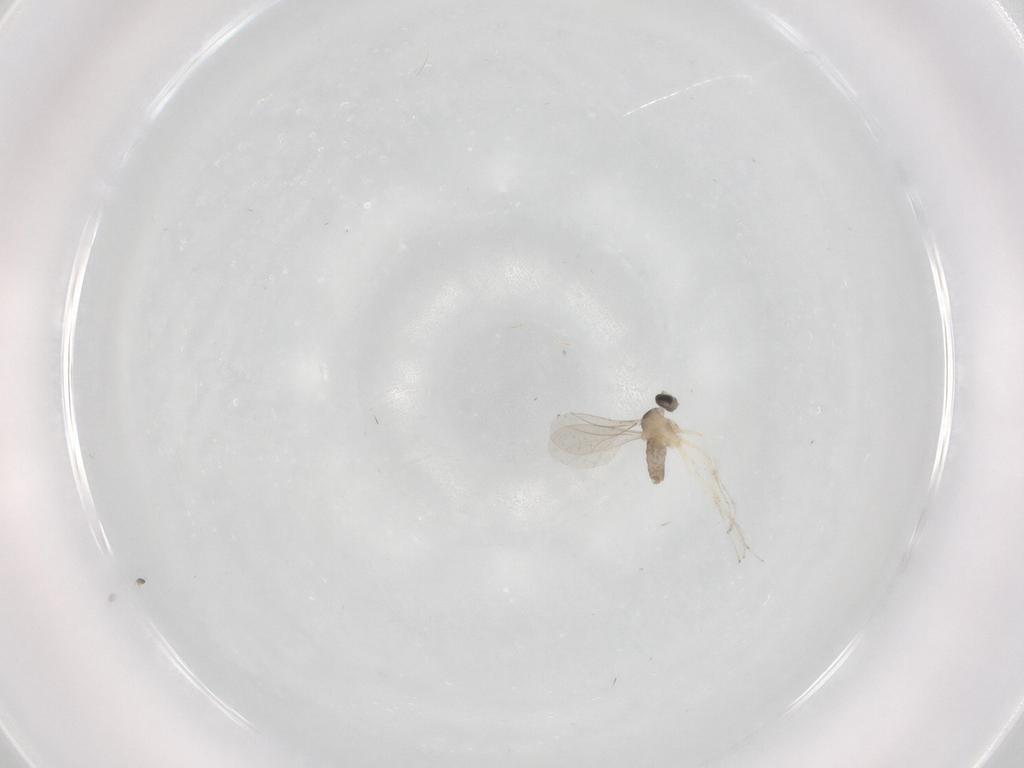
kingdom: Animalia
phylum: Arthropoda
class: Insecta
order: Diptera
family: Cecidomyiidae
